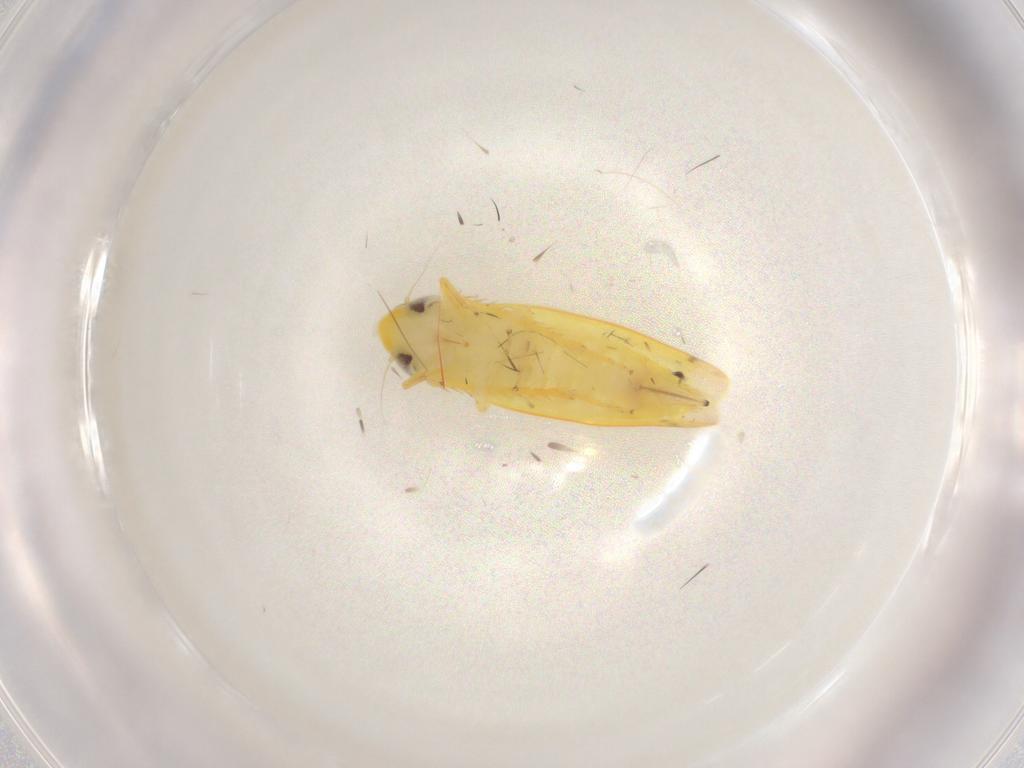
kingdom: Animalia
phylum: Arthropoda
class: Insecta
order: Hemiptera
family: Cicadellidae
